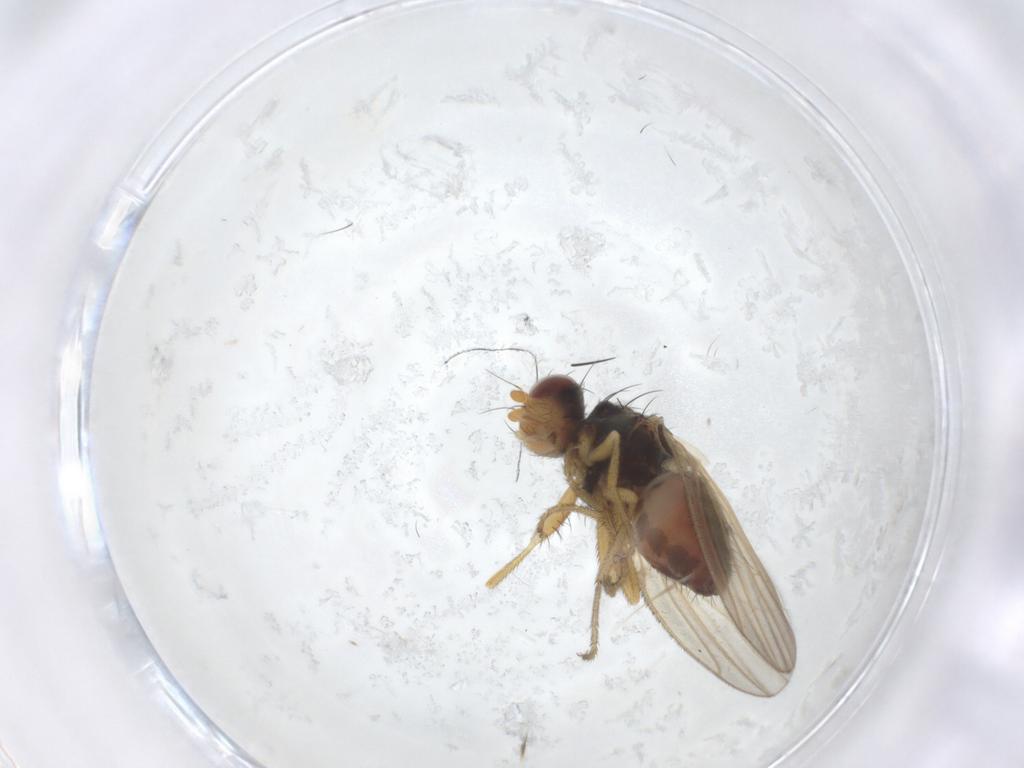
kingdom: Animalia
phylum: Arthropoda
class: Insecta
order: Diptera
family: Heleomyzidae
